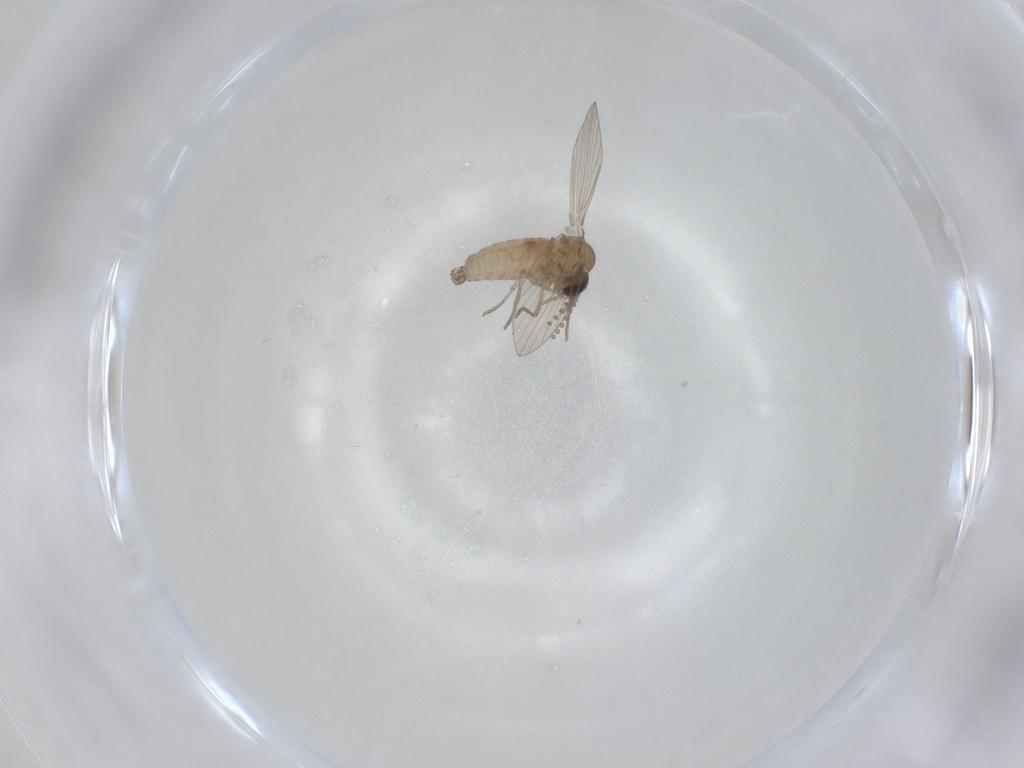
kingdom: Animalia
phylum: Arthropoda
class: Insecta
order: Diptera
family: Psychodidae
